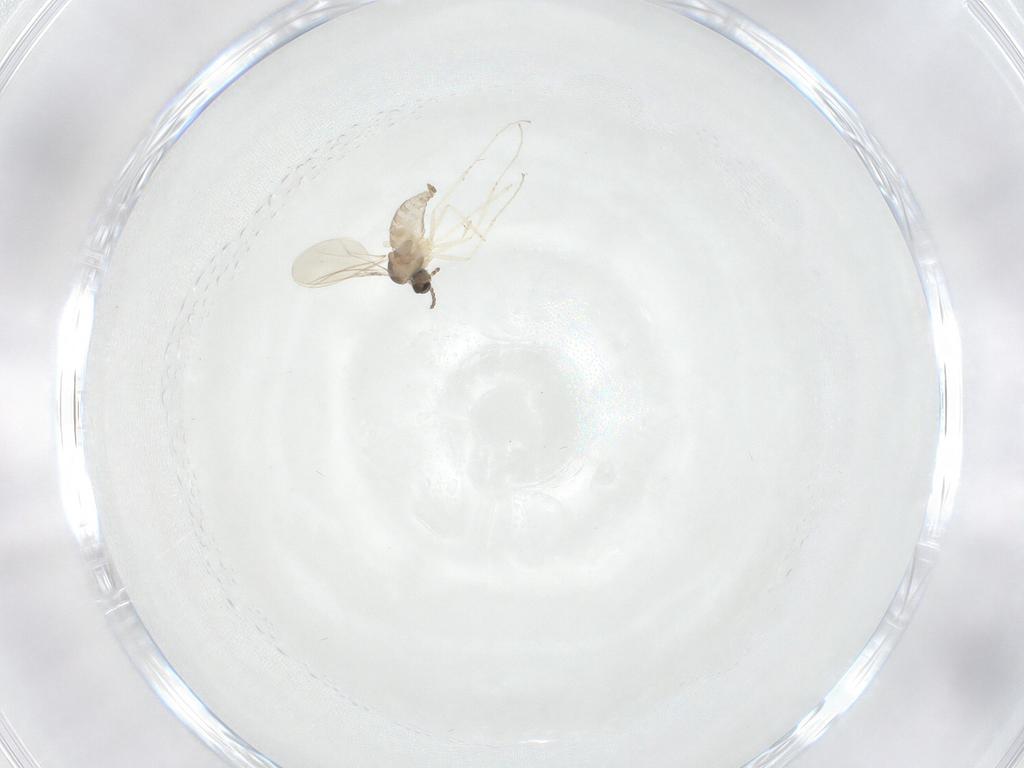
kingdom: Animalia
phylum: Arthropoda
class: Insecta
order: Diptera
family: Cecidomyiidae
